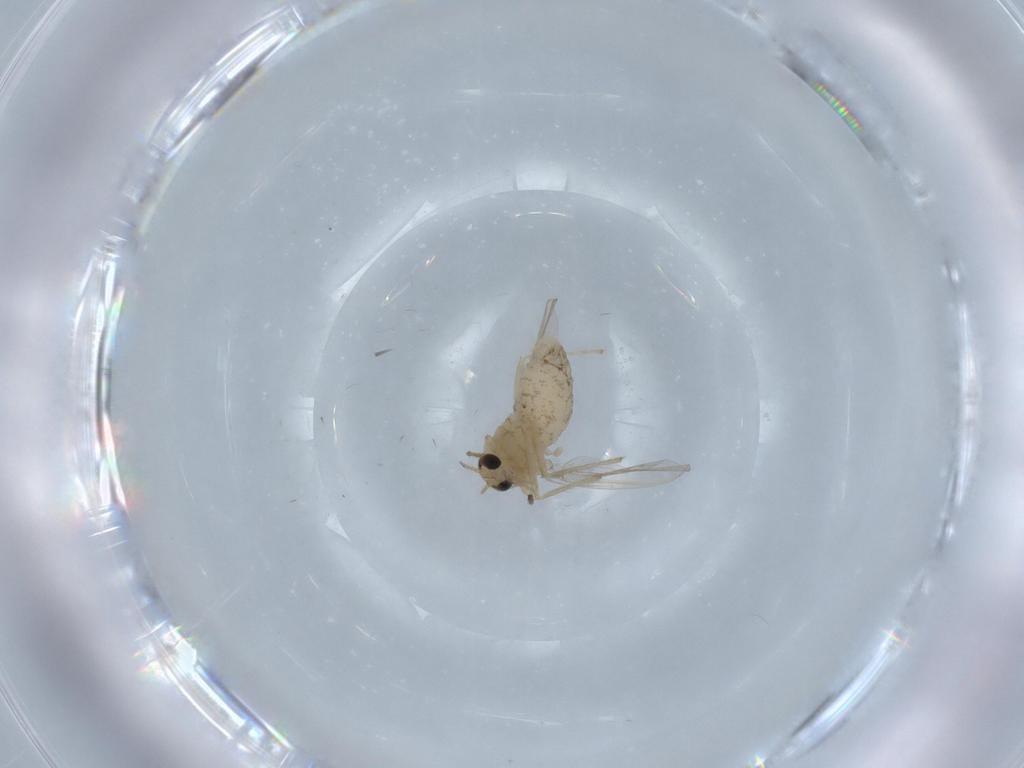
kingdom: Animalia
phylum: Arthropoda
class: Insecta
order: Diptera
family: Chironomidae
